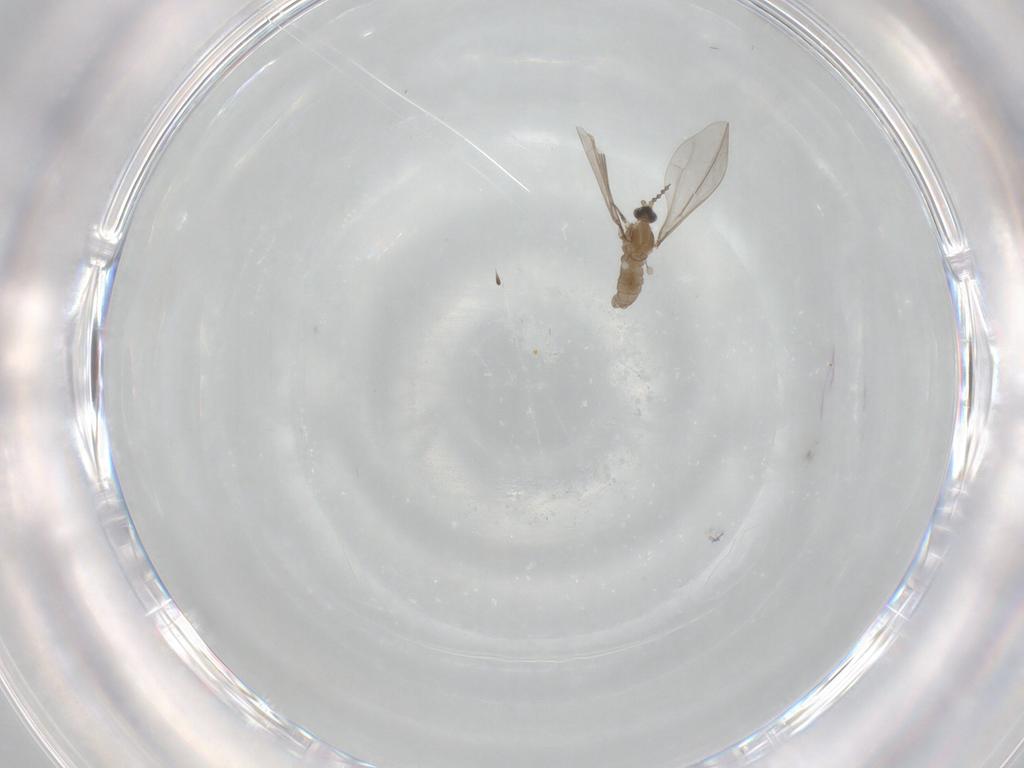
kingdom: Animalia
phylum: Arthropoda
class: Insecta
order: Diptera
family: Cecidomyiidae
